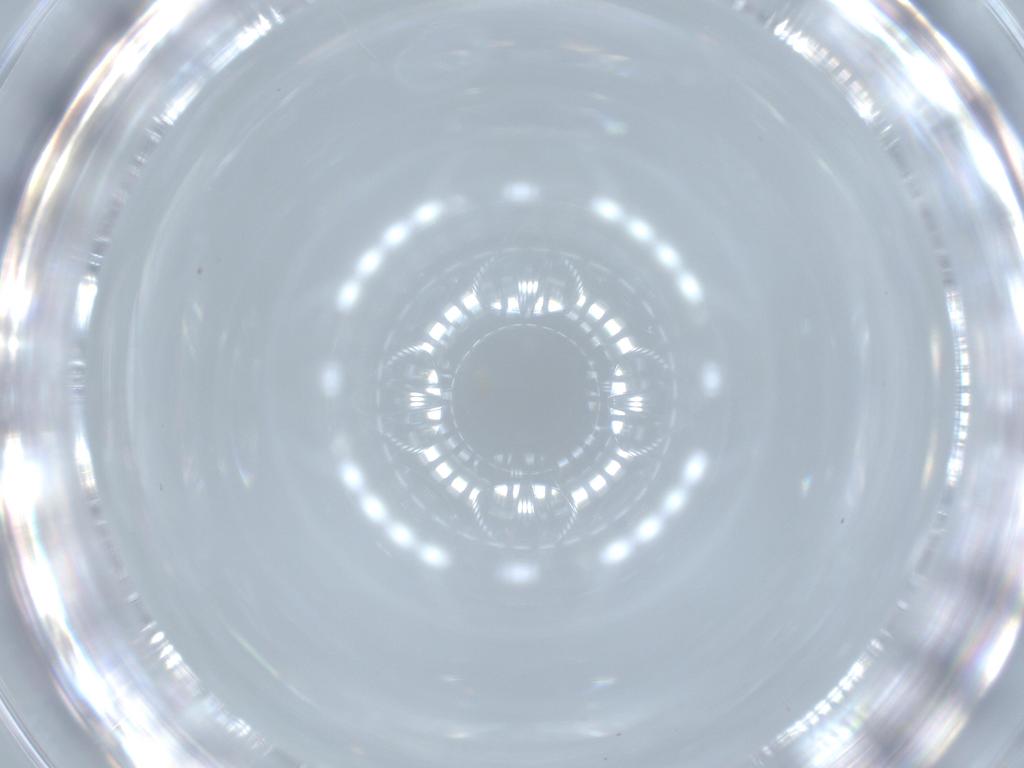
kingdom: Animalia
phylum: Arthropoda
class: Insecta
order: Hymenoptera
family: Aphelinidae
